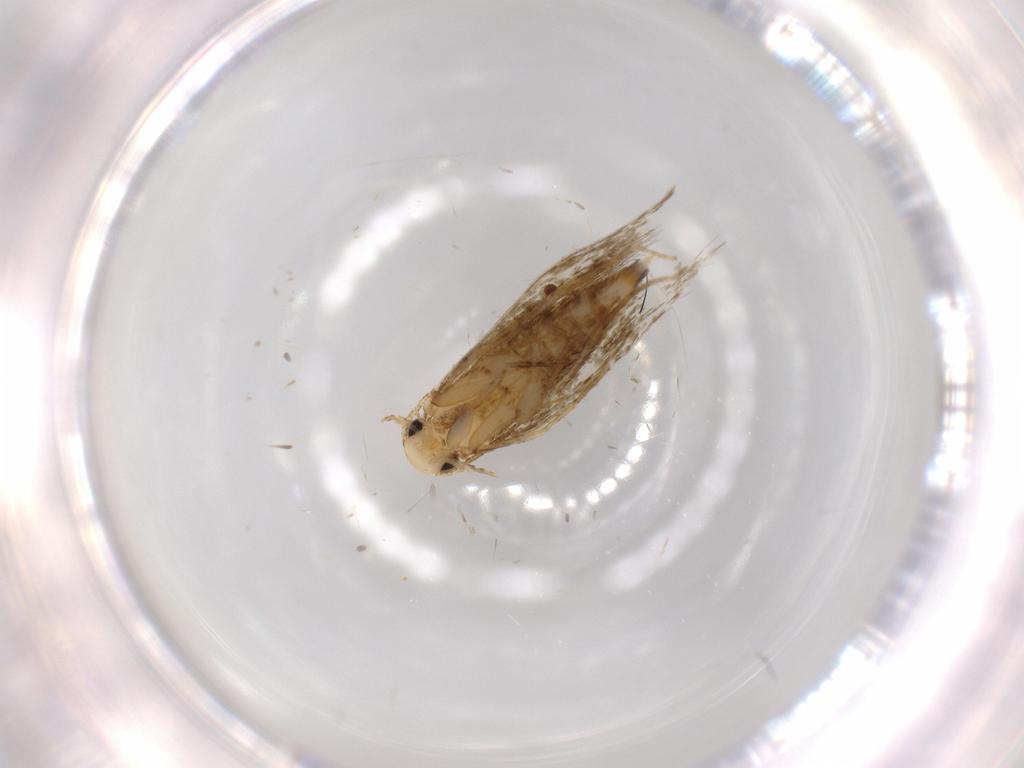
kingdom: Animalia
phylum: Arthropoda
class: Insecta
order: Lepidoptera
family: Tineidae
